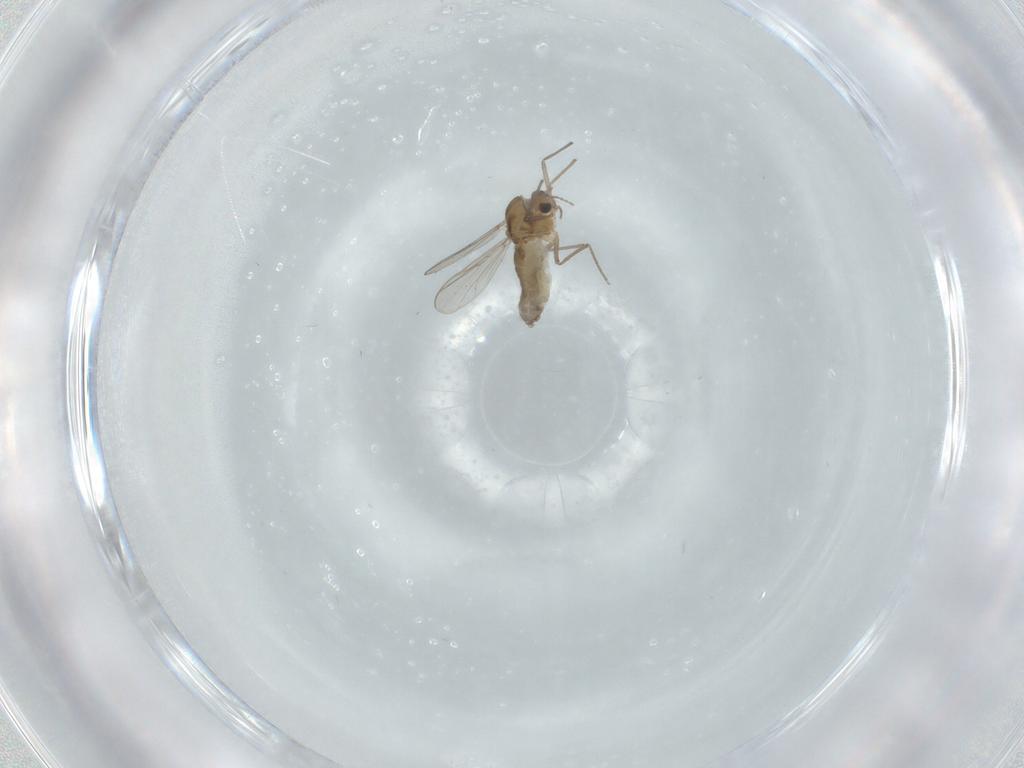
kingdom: Animalia
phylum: Arthropoda
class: Insecta
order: Diptera
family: Chironomidae
